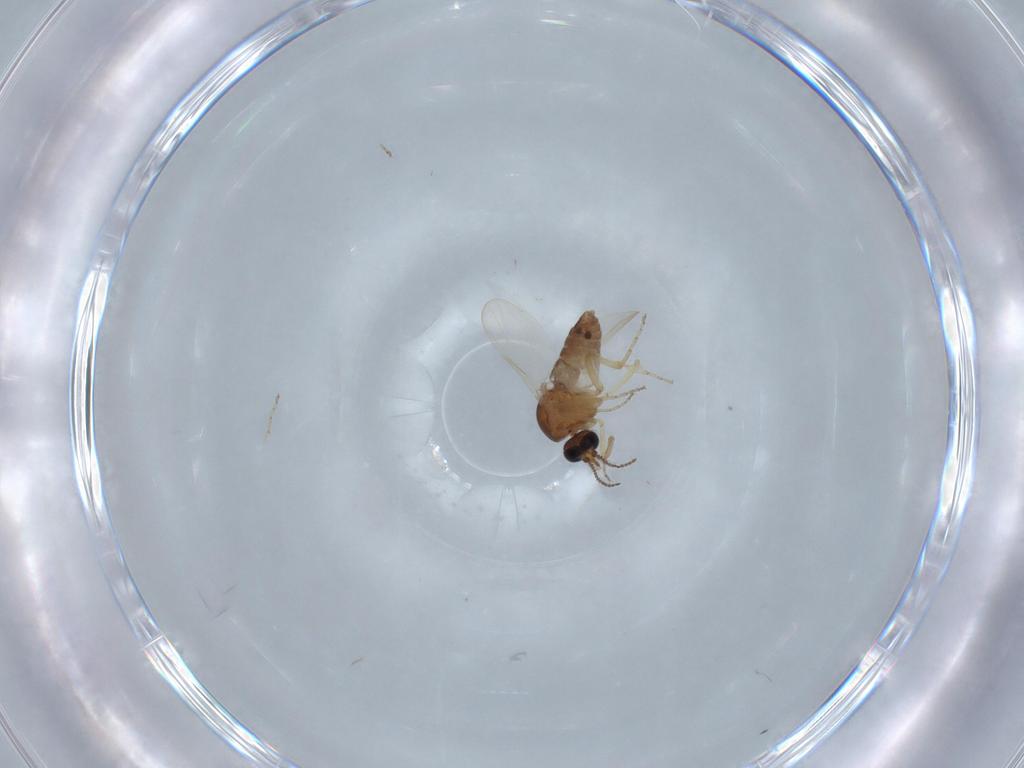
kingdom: Animalia
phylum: Arthropoda
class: Insecta
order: Diptera
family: Ceratopogonidae
